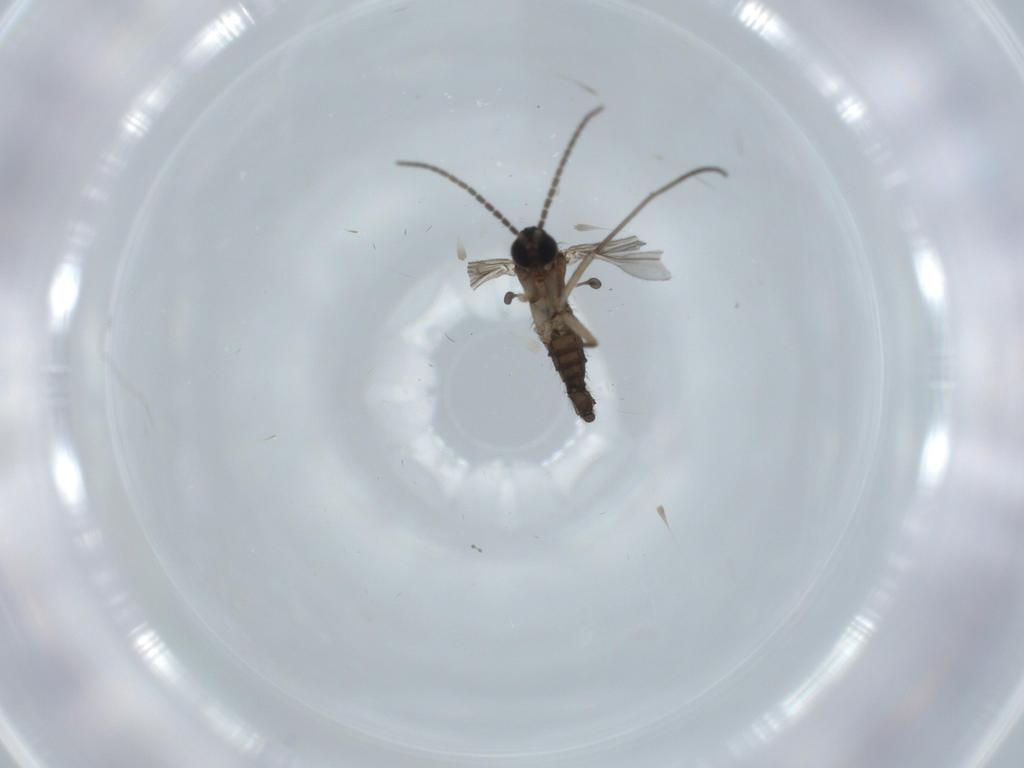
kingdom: Animalia
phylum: Arthropoda
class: Insecta
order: Diptera
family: Sciaridae
